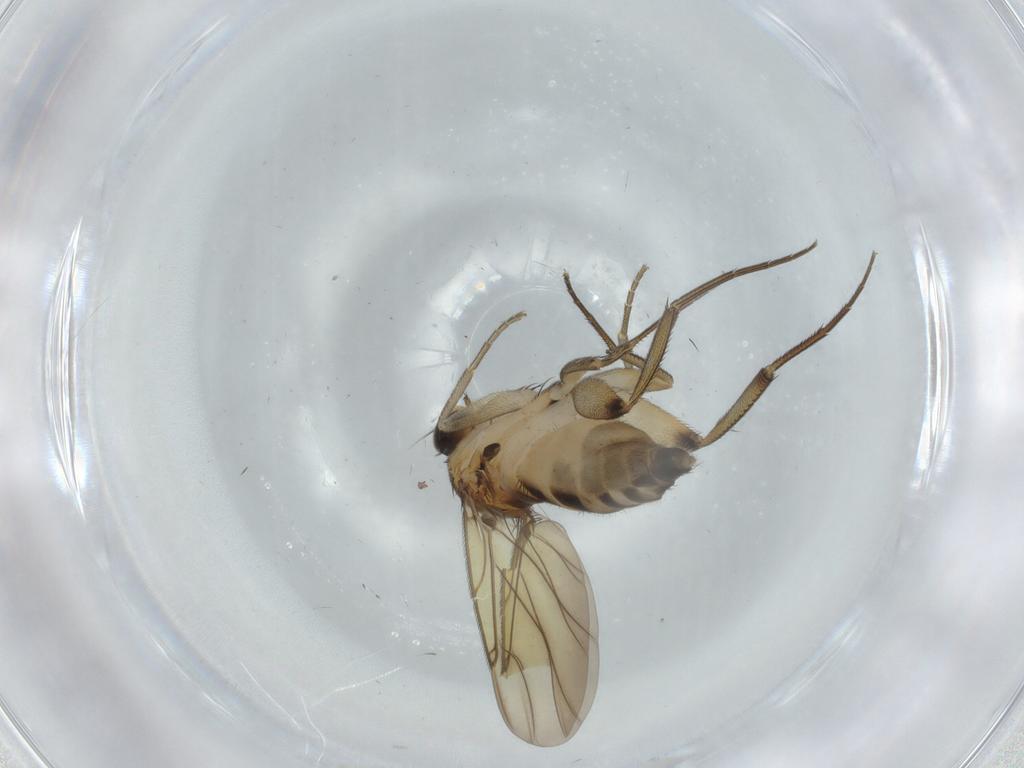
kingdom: Animalia
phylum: Arthropoda
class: Insecta
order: Diptera
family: Phoridae
